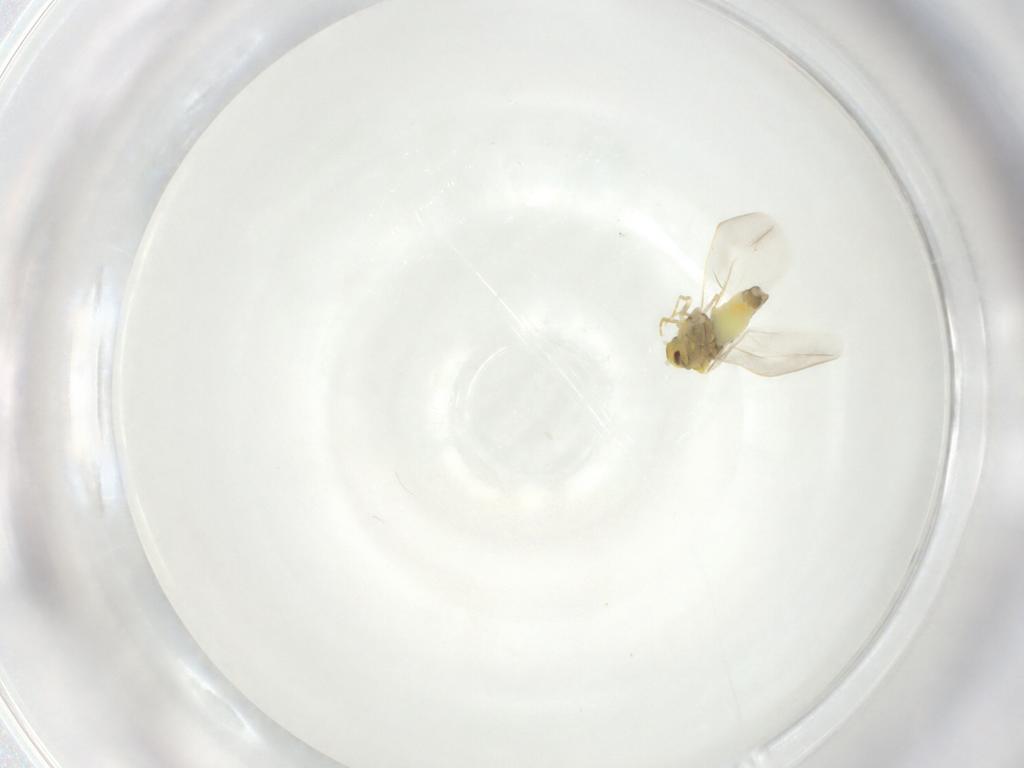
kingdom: Animalia
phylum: Arthropoda
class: Insecta
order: Hemiptera
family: Aleyrodidae
